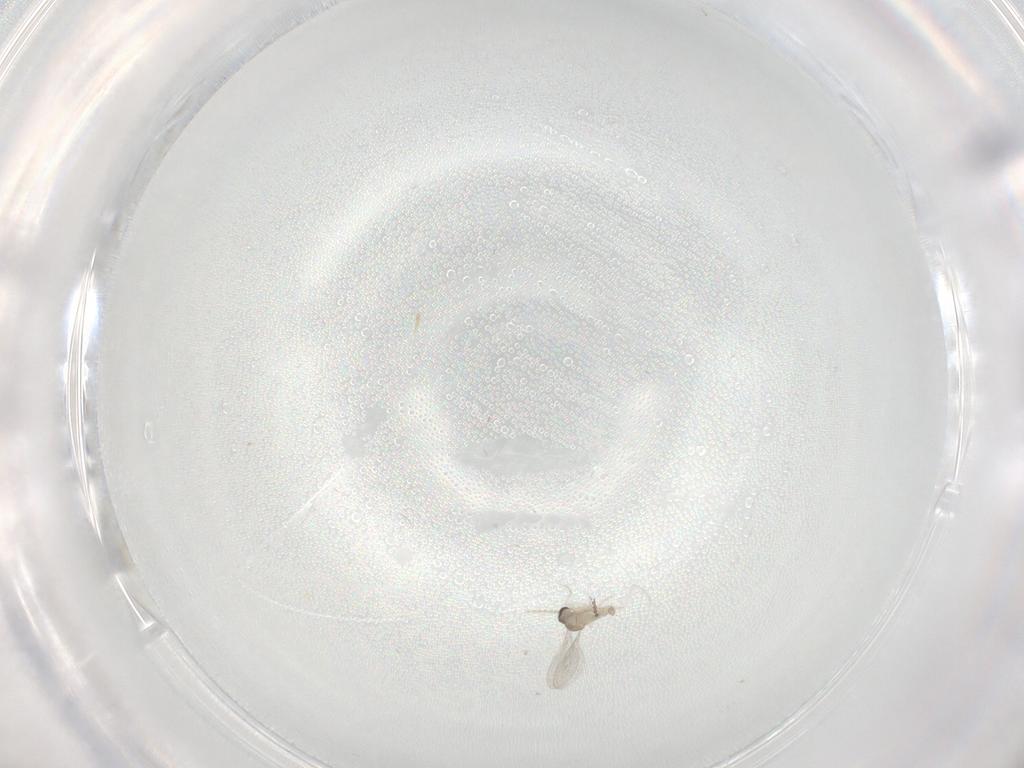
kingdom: Animalia
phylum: Arthropoda
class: Insecta
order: Diptera
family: Cecidomyiidae
